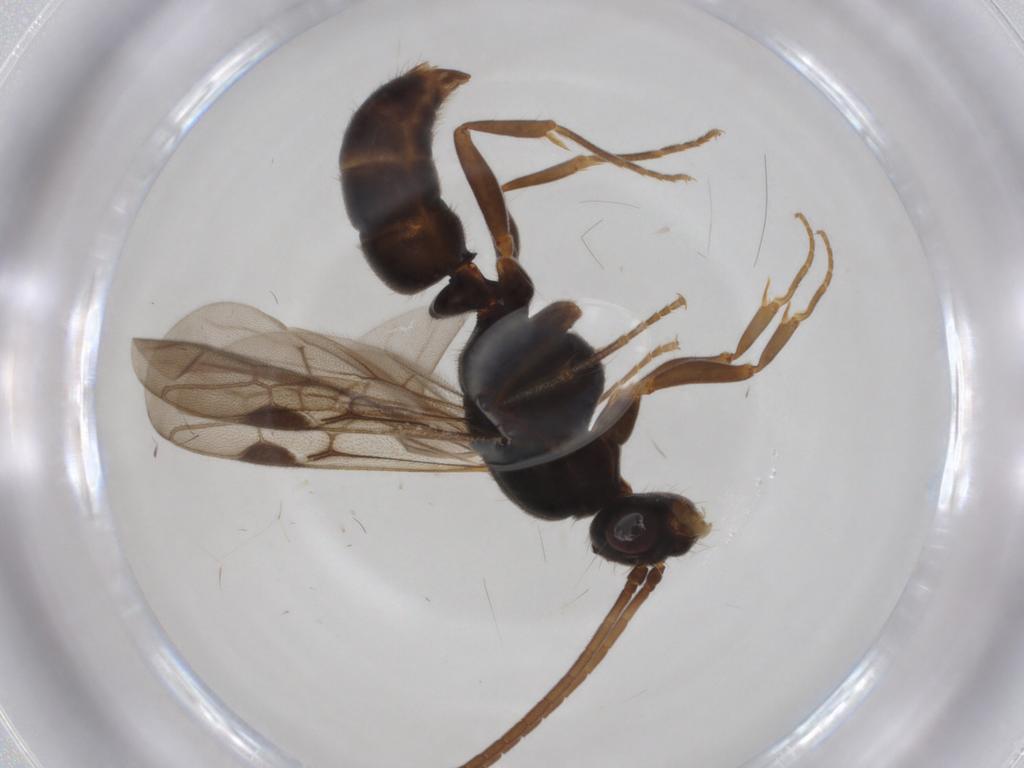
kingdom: Animalia
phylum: Arthropoda
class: Insecta
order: Hymenoptera
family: Formicidae
